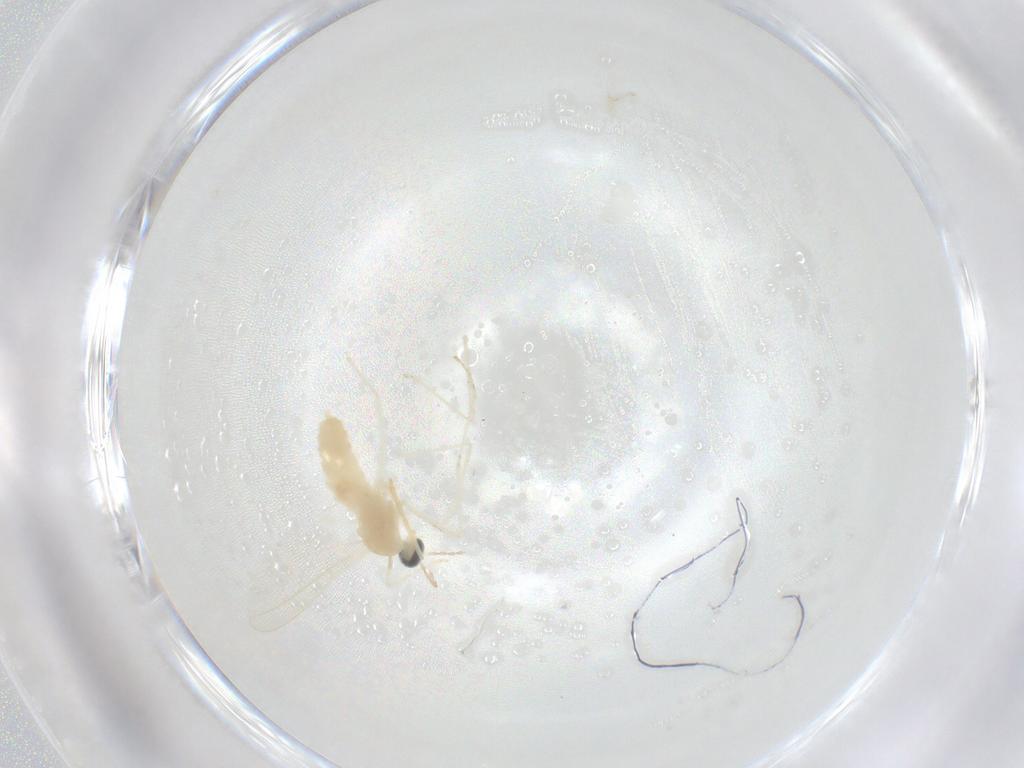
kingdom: Animalia
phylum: Arthropoda
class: Insecta
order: Diptera
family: Cecidomyiidae
